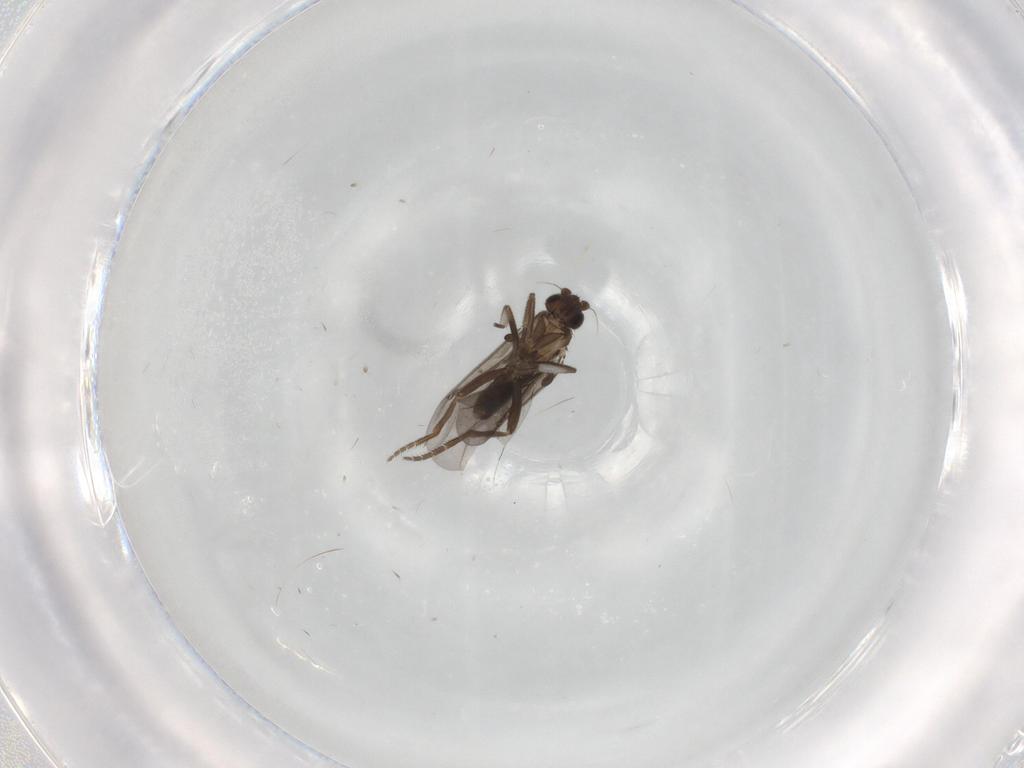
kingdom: Animalia
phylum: Arthropoda
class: Insecta
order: Diptera
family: Phoridae
